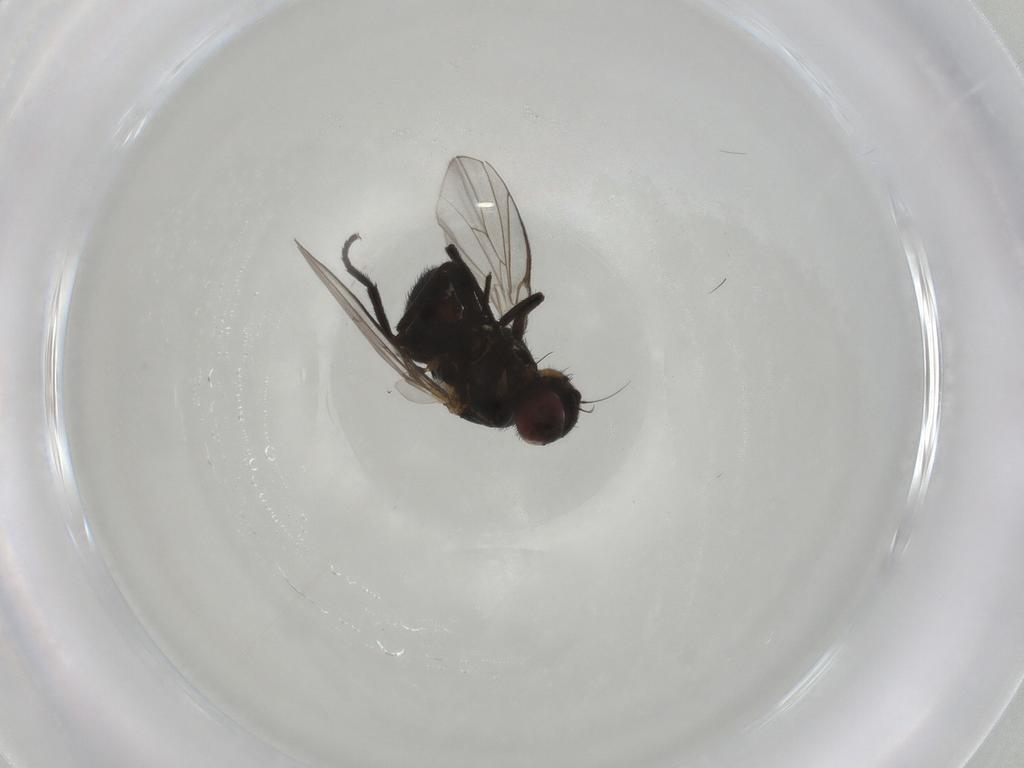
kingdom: Animalia
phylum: Arthropoda
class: Insecta
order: Diptera
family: Agromyzidae
